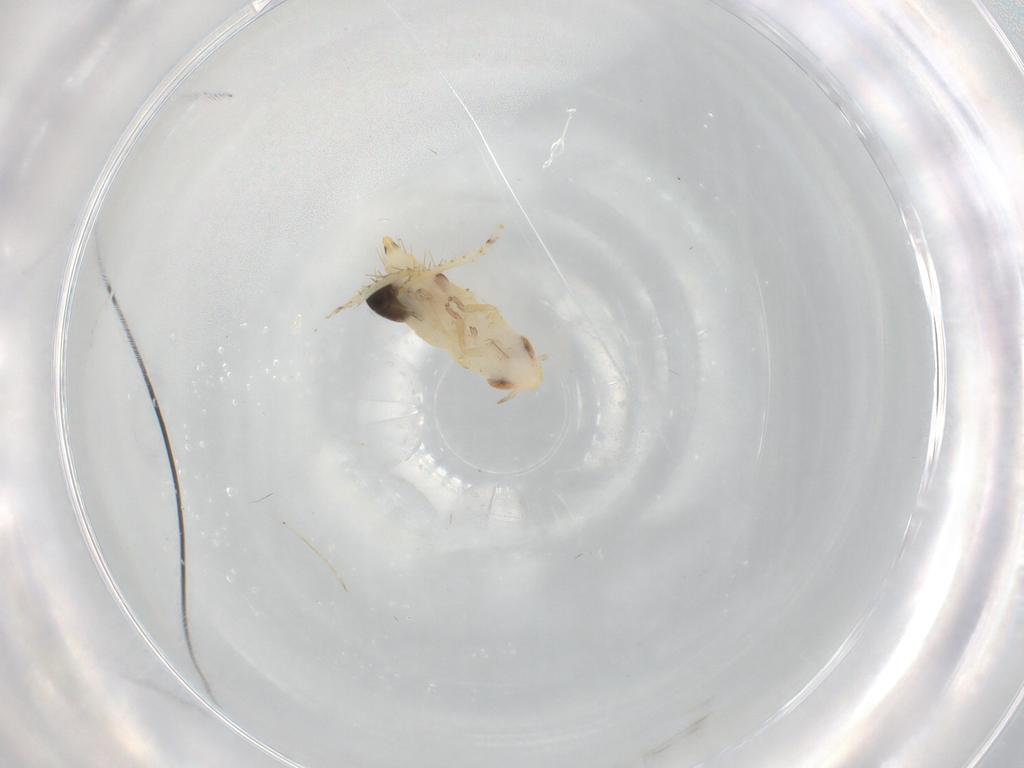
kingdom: Animalia
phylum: Arthropoda
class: Insecta
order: Hymenoptera
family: Dryinidae
